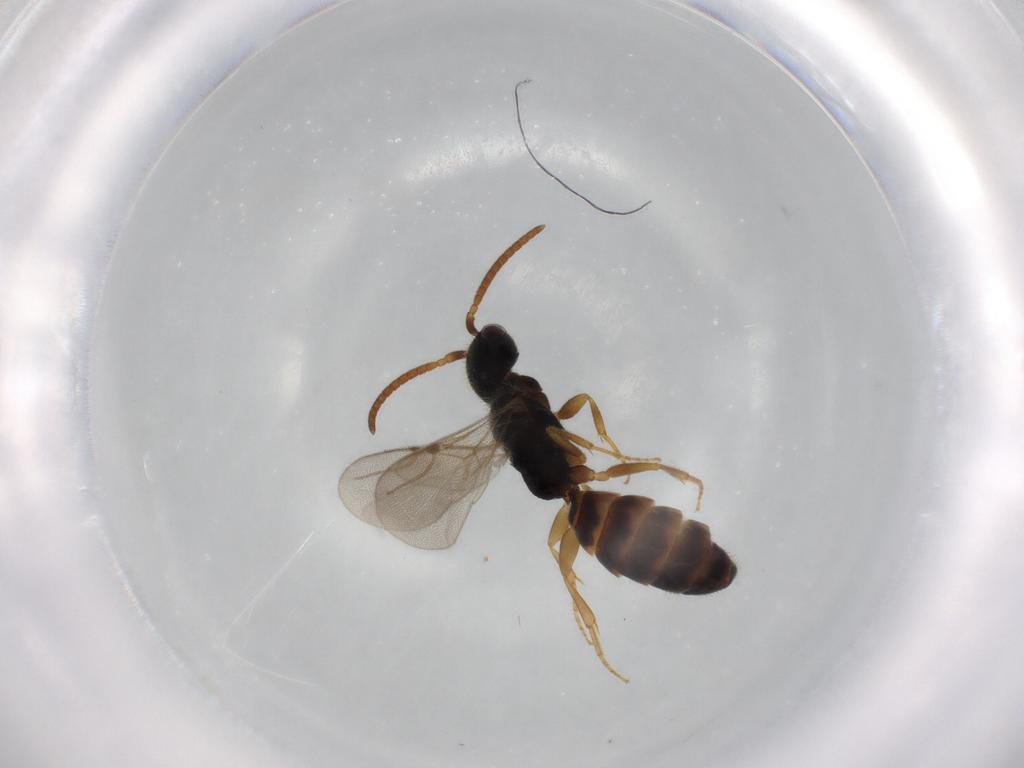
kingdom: Animalia
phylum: Arthropoda
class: Insecta
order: Hymenoptera
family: Bethylidae
